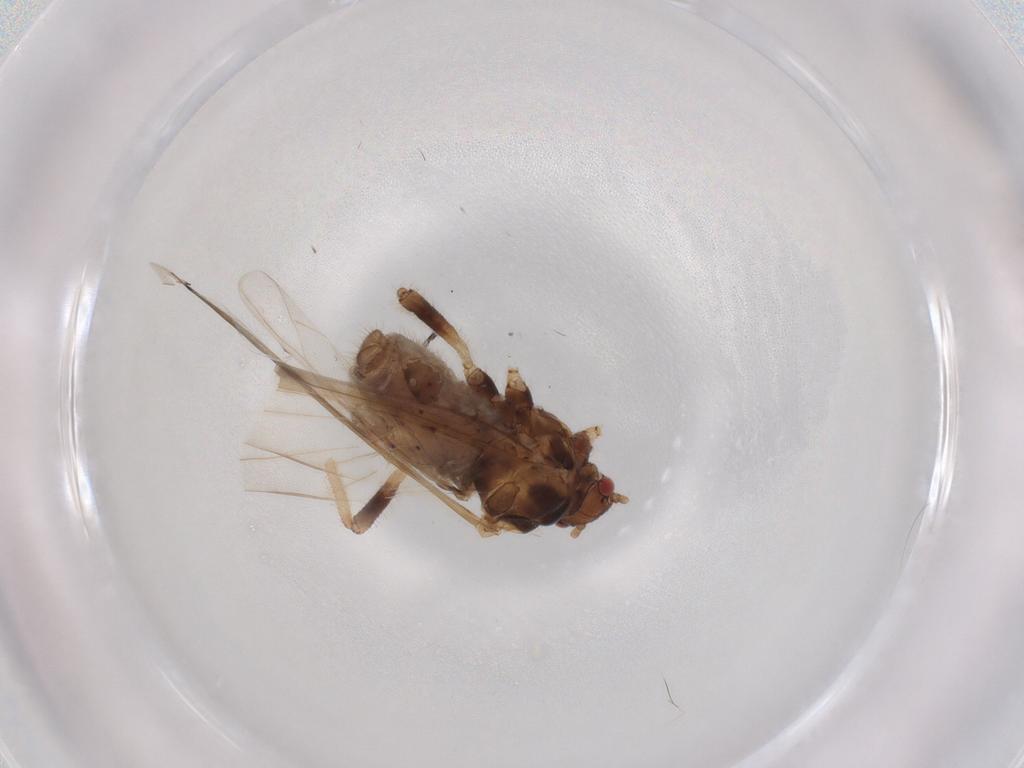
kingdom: Animalia
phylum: Arthropoda
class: Insecta
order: Hemiptera
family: Aphididae
